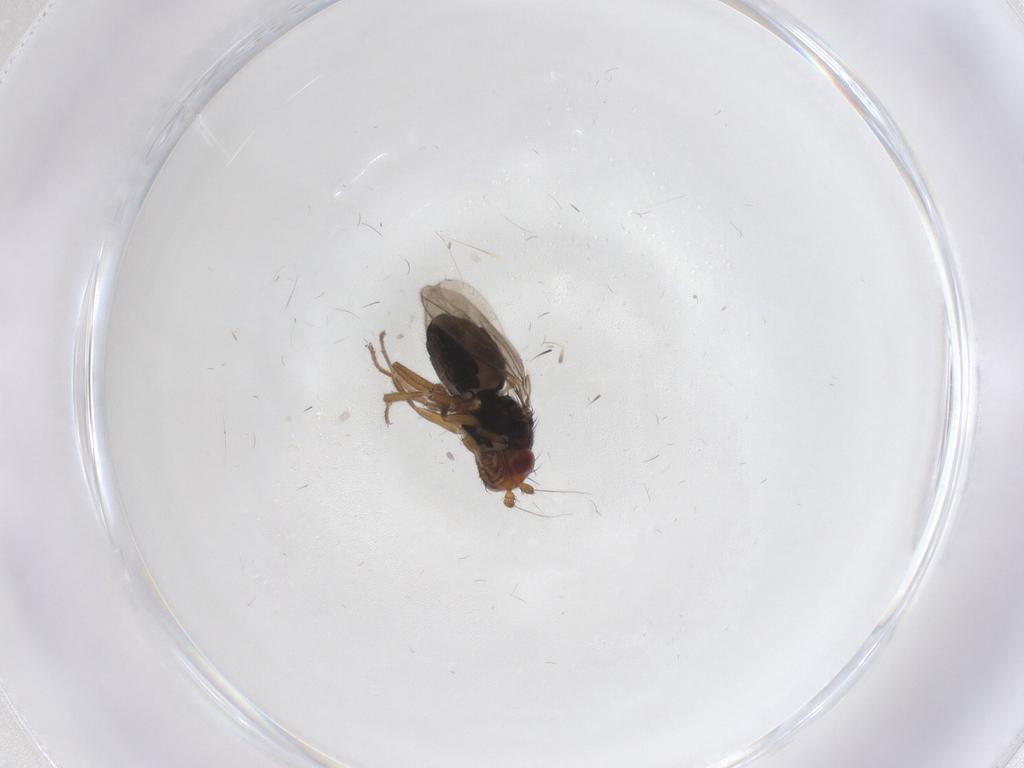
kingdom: Animalia
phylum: Arthropoda
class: Insecta
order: Diptera
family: Sphaeroceridae
